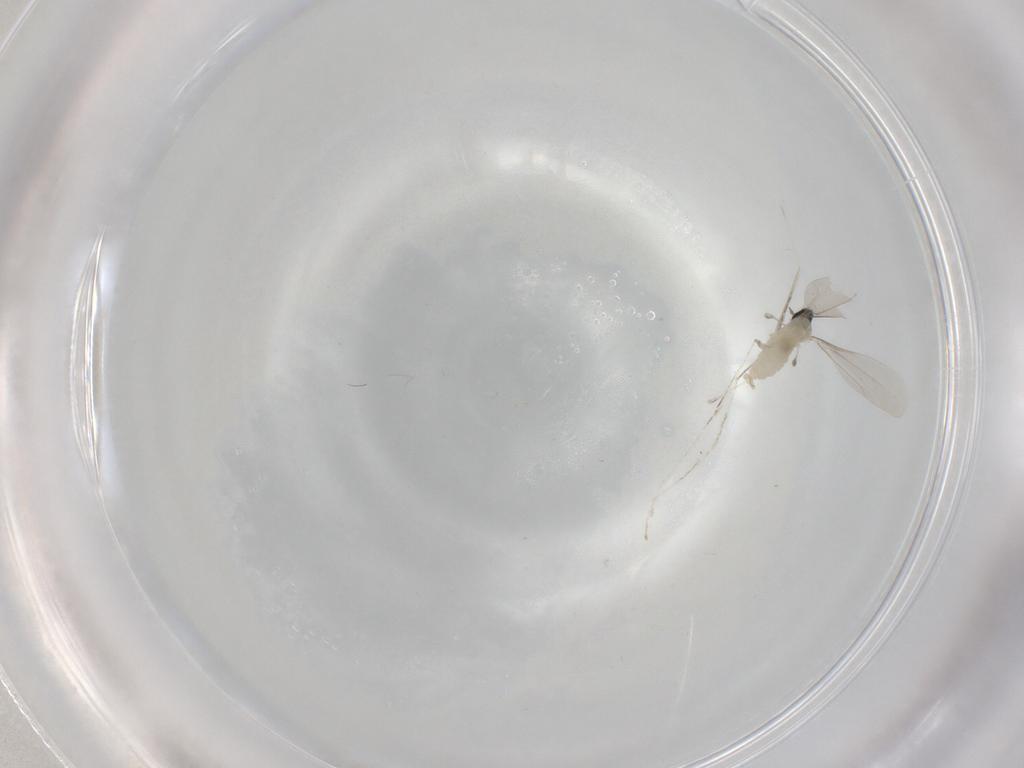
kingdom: Animalia
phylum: Arthropoda
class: Insecta
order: Diptera
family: Cecidomyiidae
